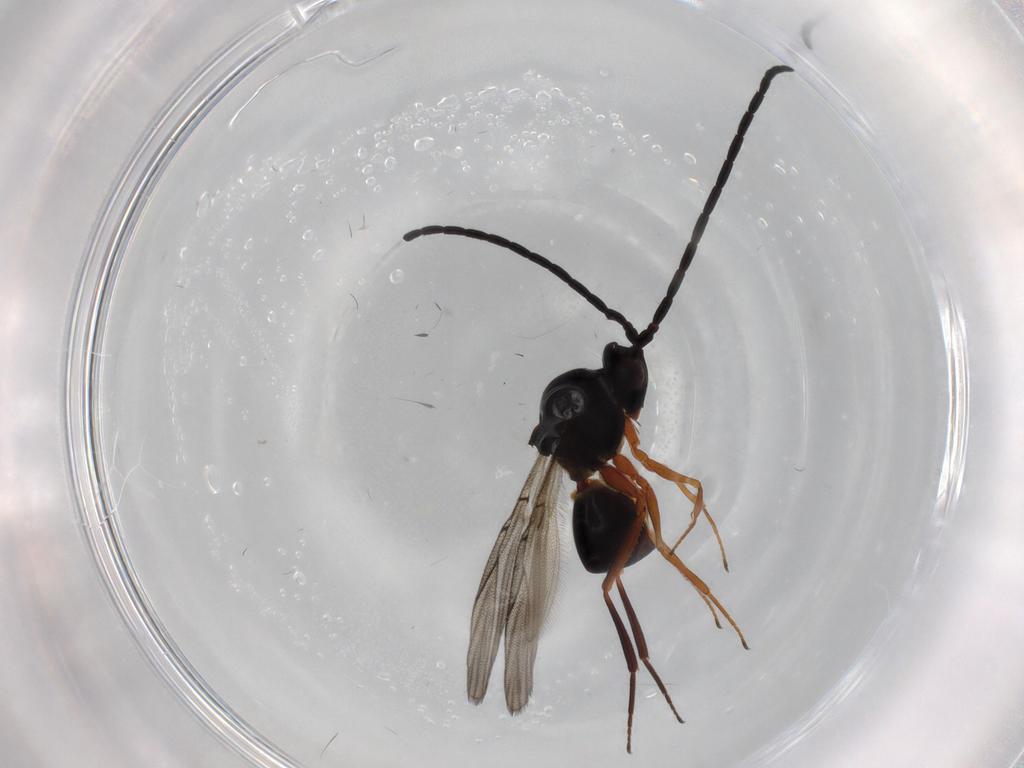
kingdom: Animalia
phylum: Arthropoda
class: Insecta
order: Hymenoptera
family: Figitidae
